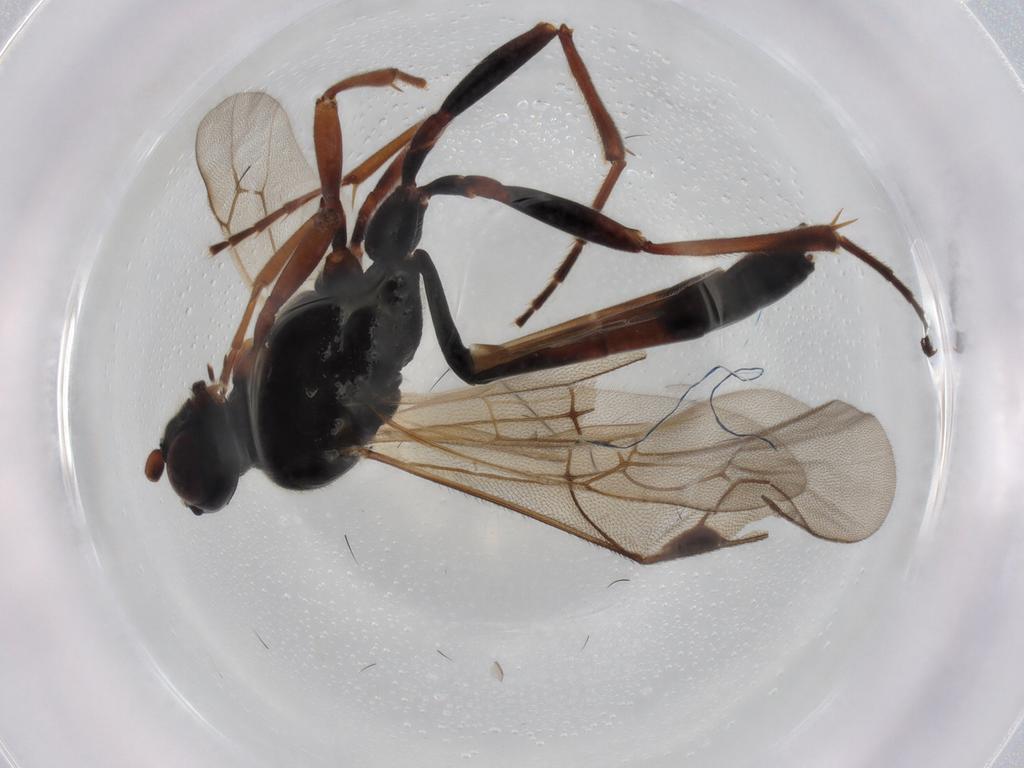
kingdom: Animalia
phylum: Arthropoda
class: Insecta
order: Hymenoptera
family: Ichneumonidae
